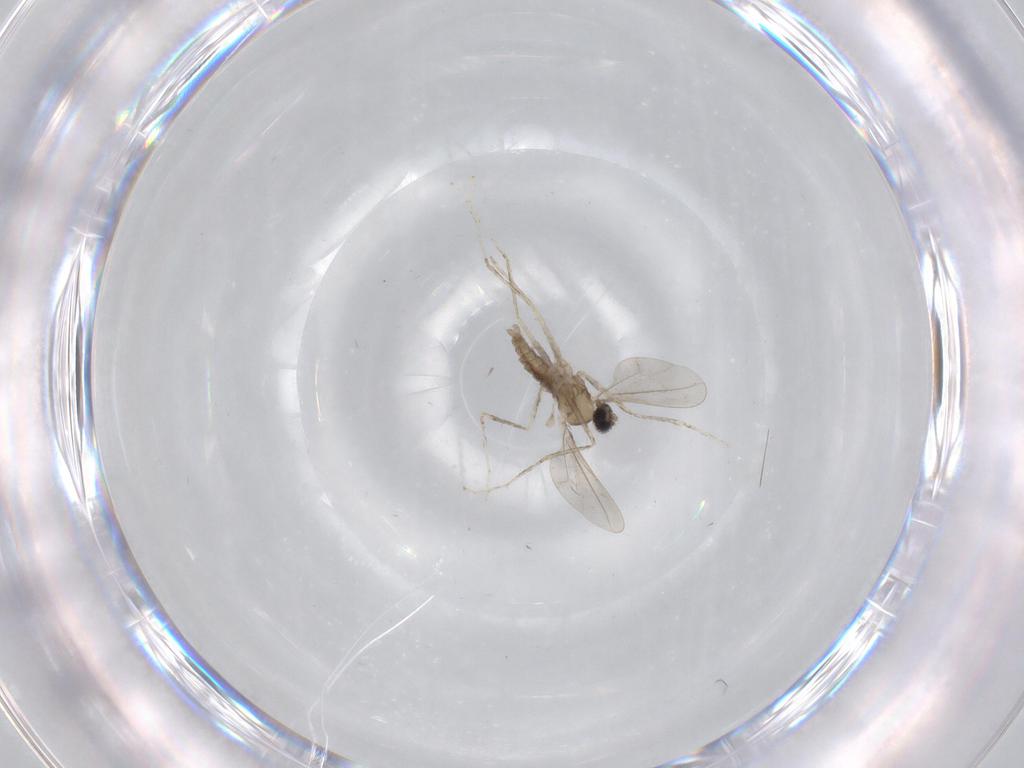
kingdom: Animalia
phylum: Arthropoda
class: Insecta
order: Diptera
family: Cecidomyiidae
